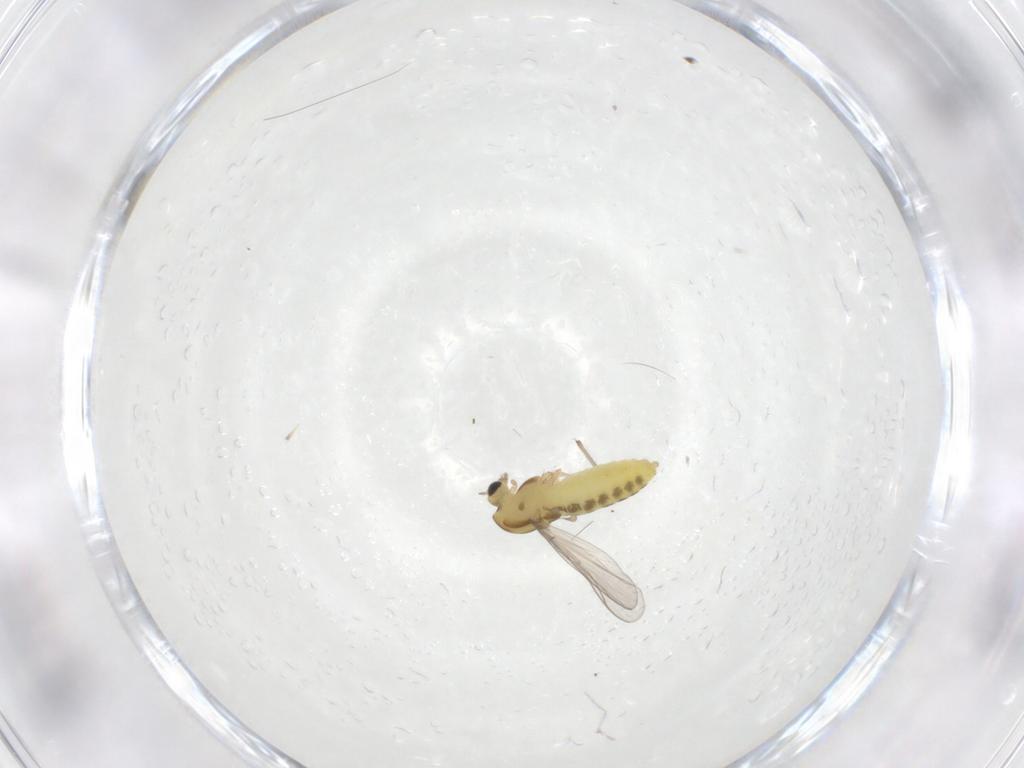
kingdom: Animalia
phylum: Arthropoda
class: Insecta
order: Diptera
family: Chironomidae
